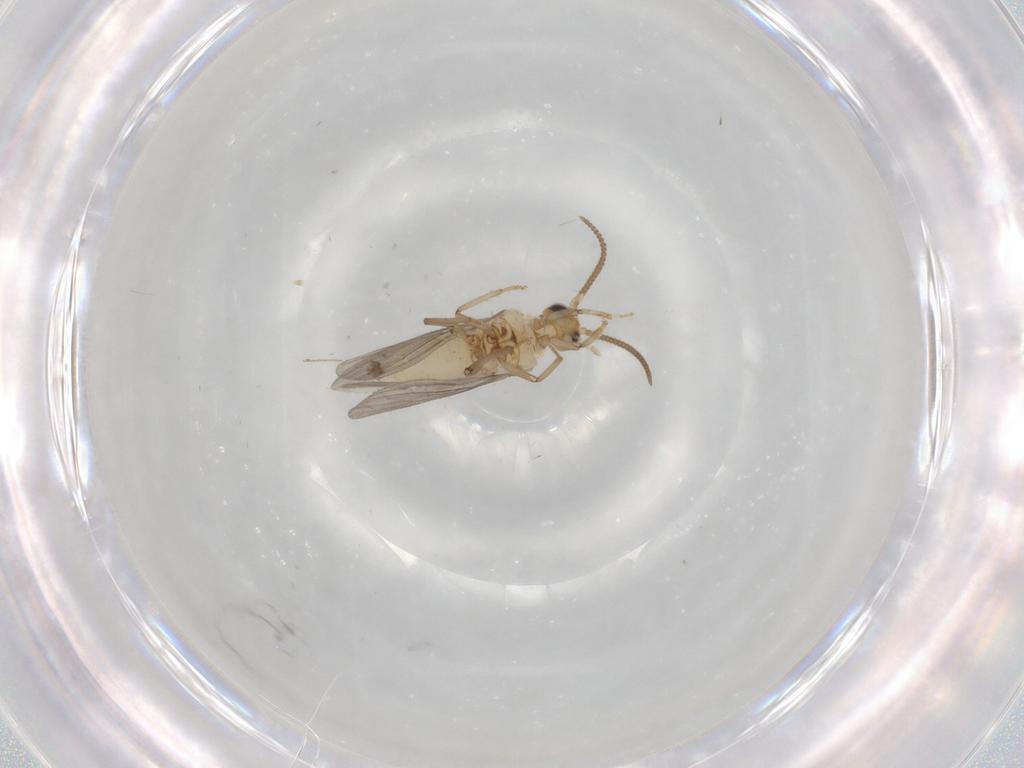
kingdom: Animalia
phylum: Arthropoda
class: Insecta
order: Neuroptera
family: Coniopterygidae
